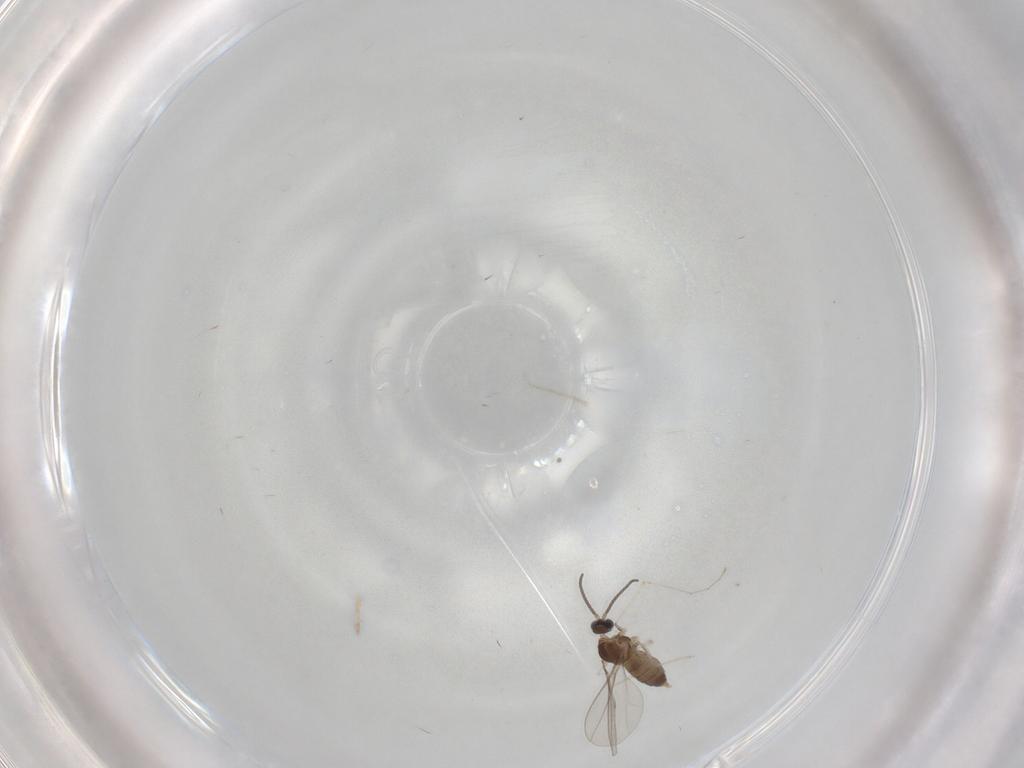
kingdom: Animalia
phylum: Arthropoda
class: Insecta
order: Diptera
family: Cecidomyiidae
